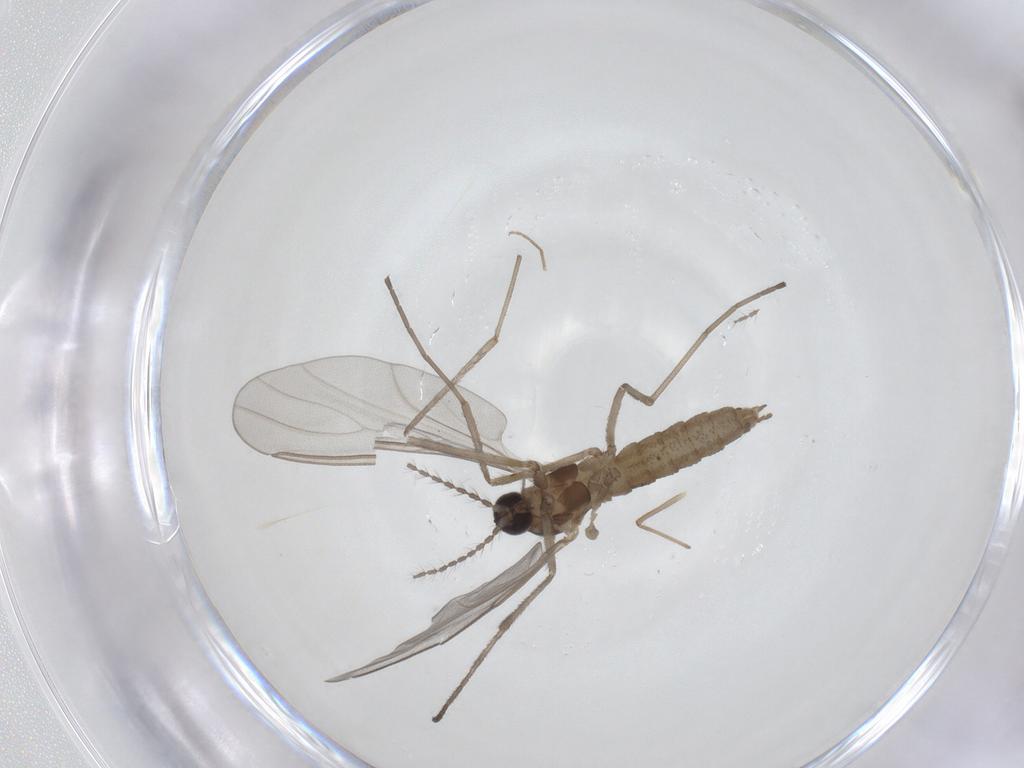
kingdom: Animalia
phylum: Arthropoda
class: Insecta
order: Diptera
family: Chironomidae
